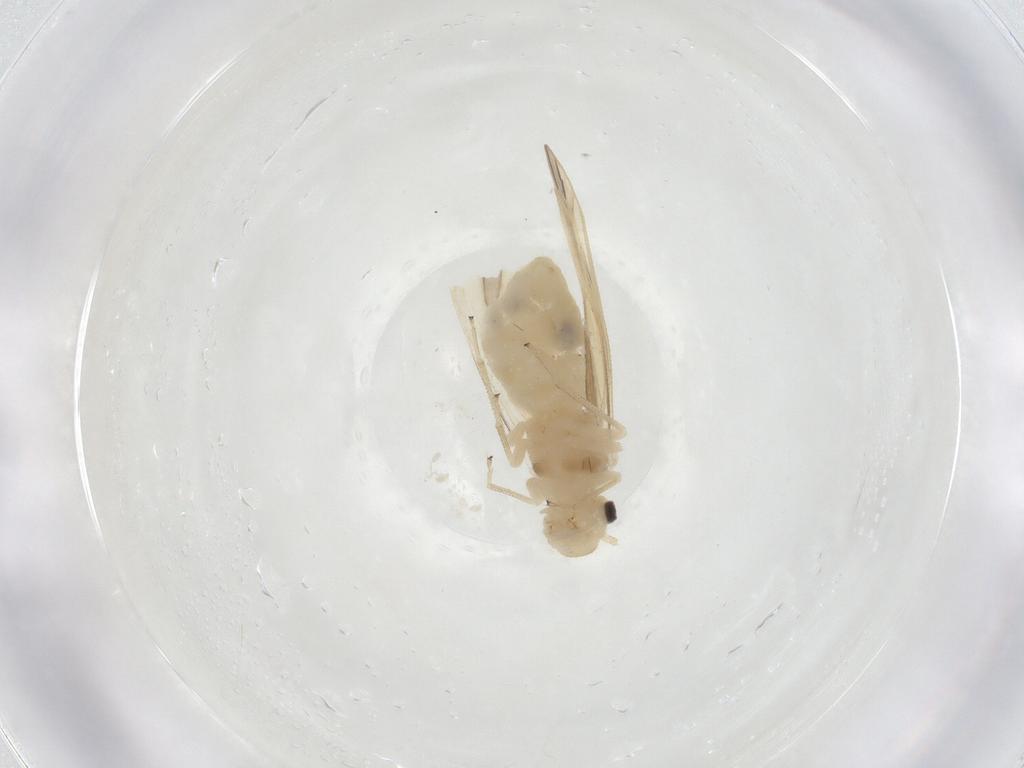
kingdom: Animalia
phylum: Arthropoda
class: Insecta
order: Psocodea
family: Caeciliusidae
